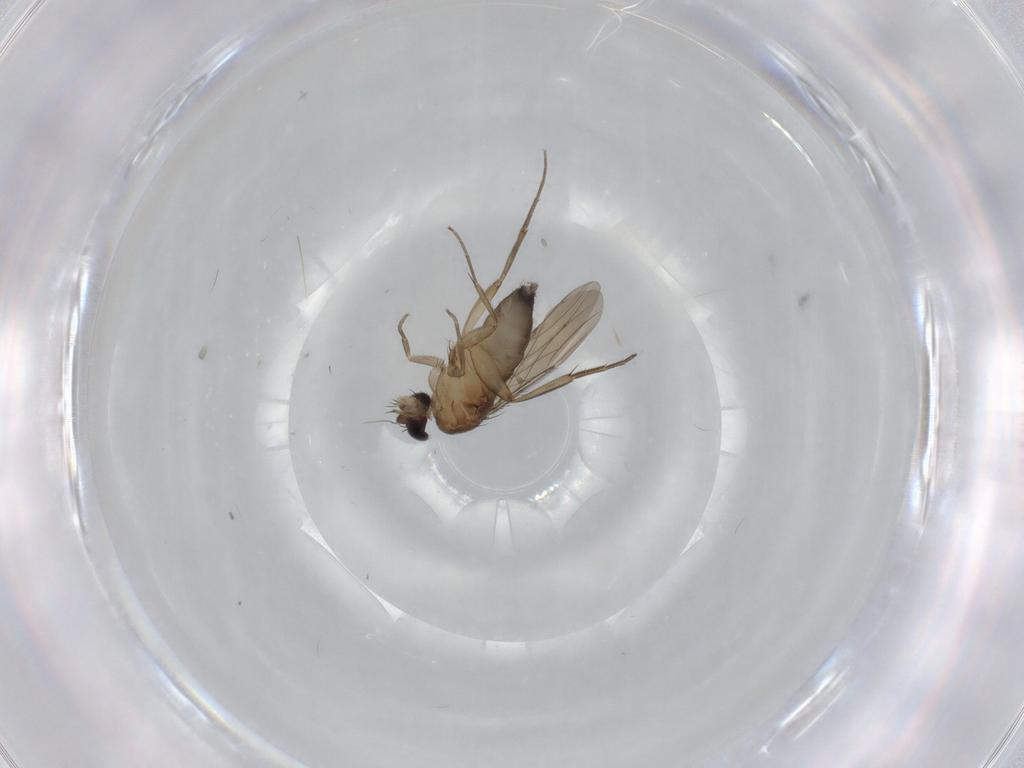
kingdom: Animalia
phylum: Arthropoda
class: Insecta
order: Diptera
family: Phoridae
